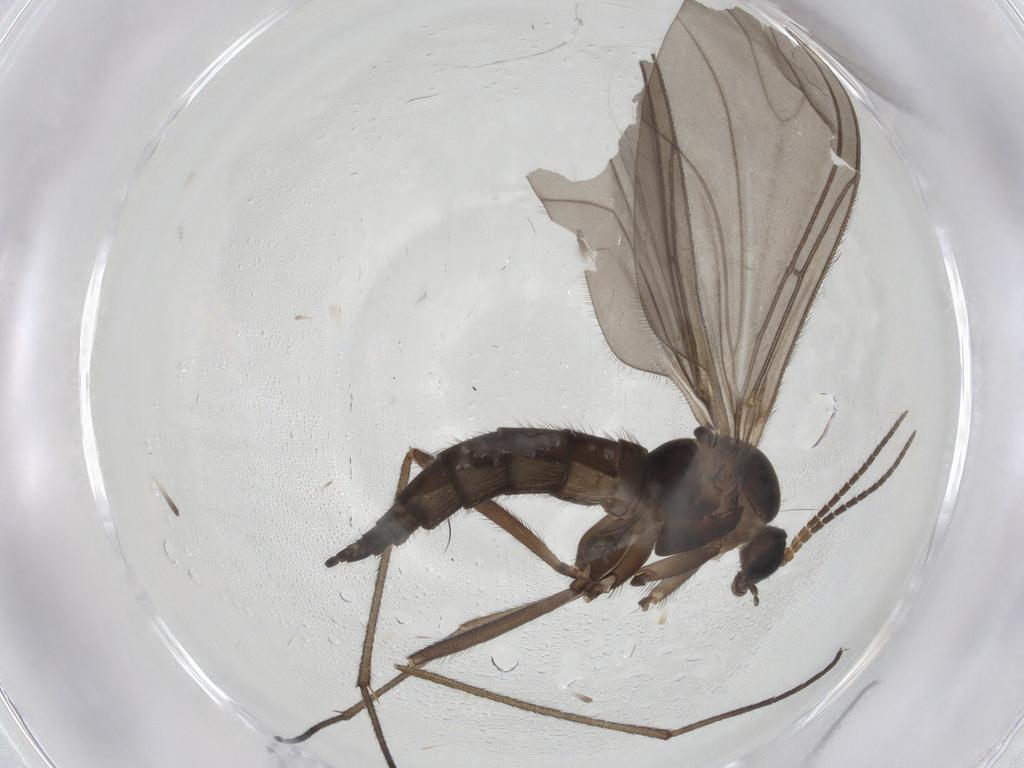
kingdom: Animalia
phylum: Arthropoda
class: Insecta
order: Diptera
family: Sciaridae
